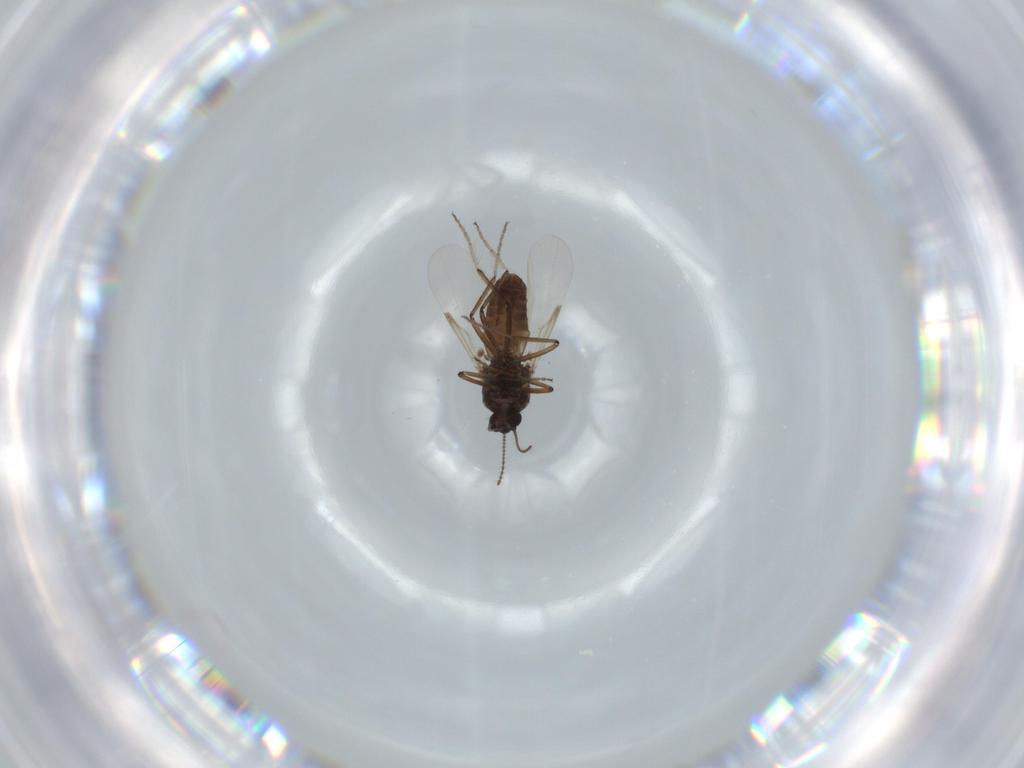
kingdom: Animalia
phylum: Arthropoda
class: Insecta
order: Diptera
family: Chironomidae
